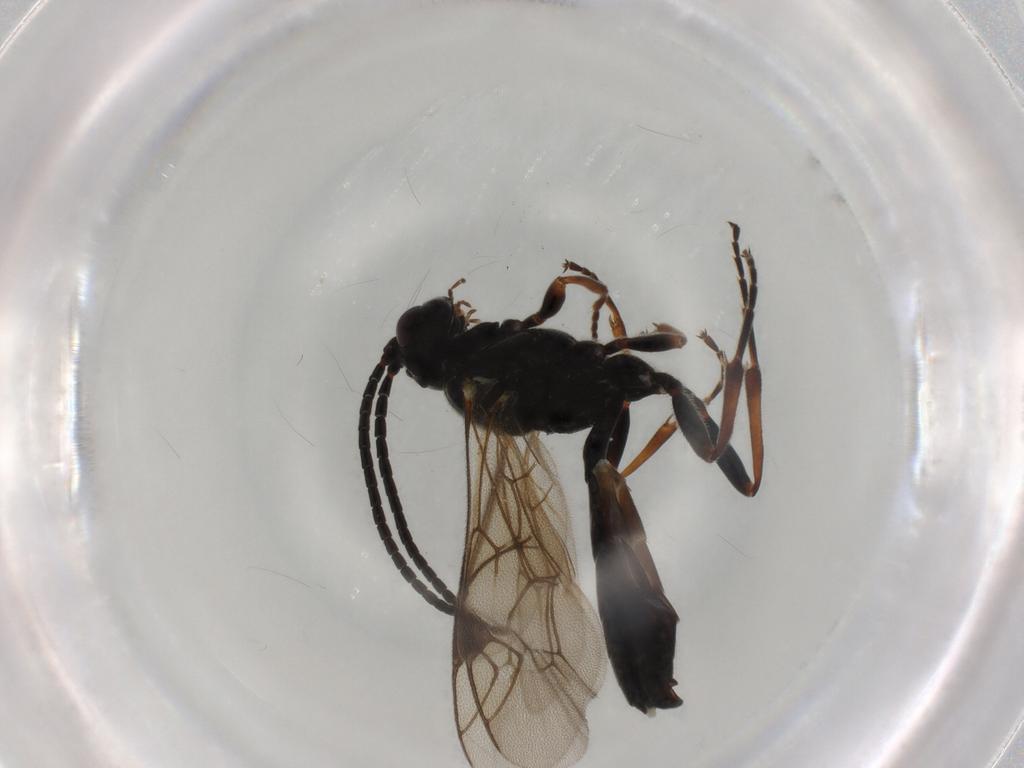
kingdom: Animalia
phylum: Arthropoda
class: Insecta
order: Hymenoptera
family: Ichneumonidae
